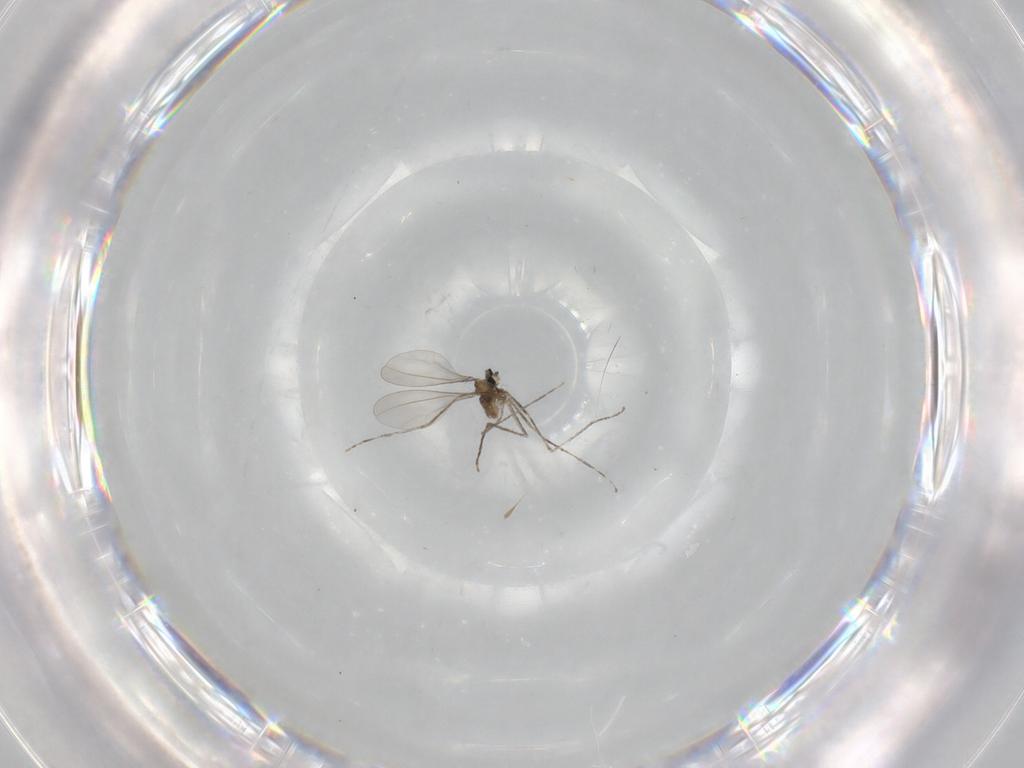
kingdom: Animalia
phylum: Arthropoda
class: Insecta
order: Diptera
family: Cecidomyiidae
